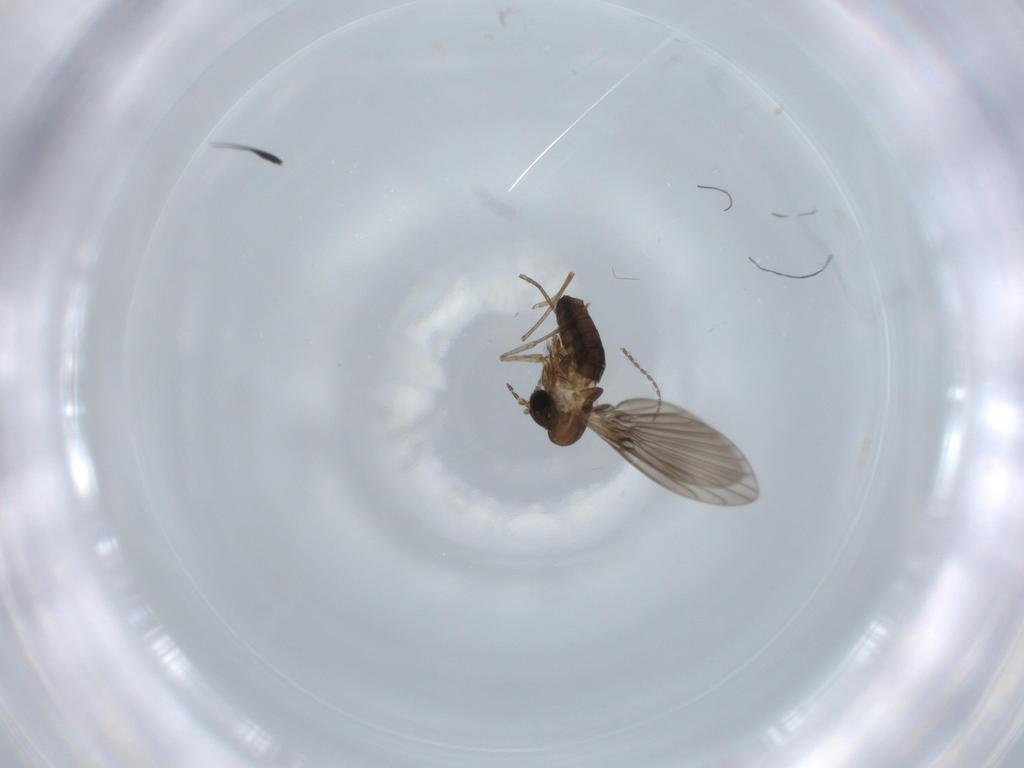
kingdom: Animalia
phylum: Arthropoda
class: Insecta
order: Diptera
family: Psychodidae
